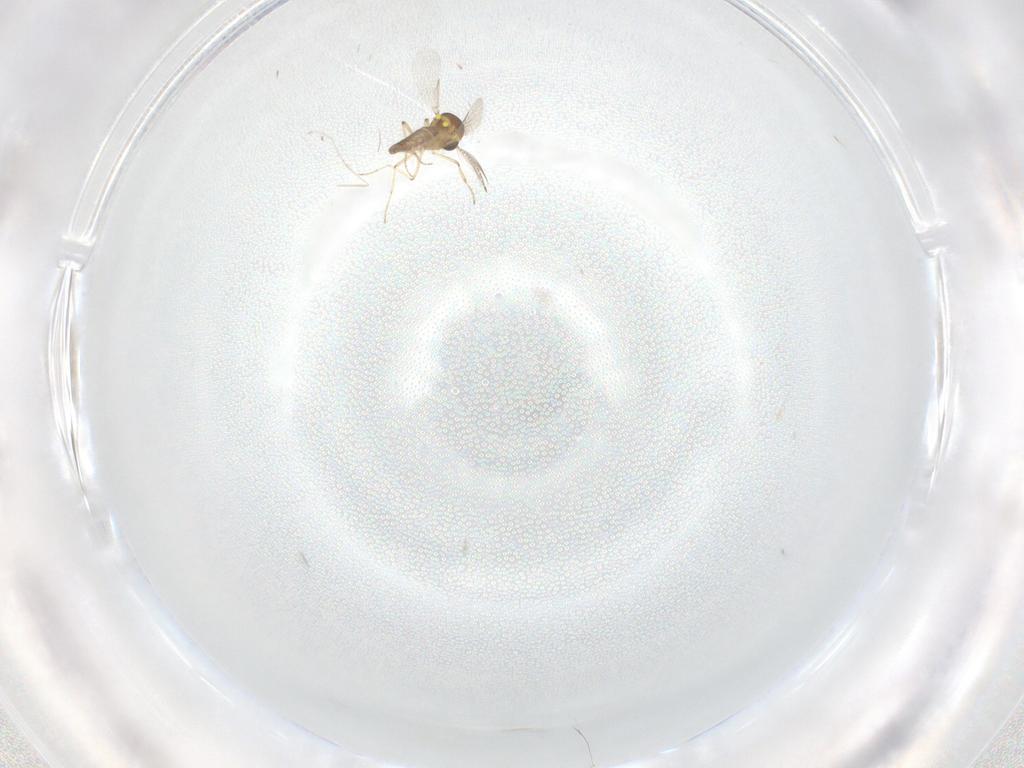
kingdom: Animalia
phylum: Arthropoda
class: Insecta
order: Diptera
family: Ceratopogonidae
